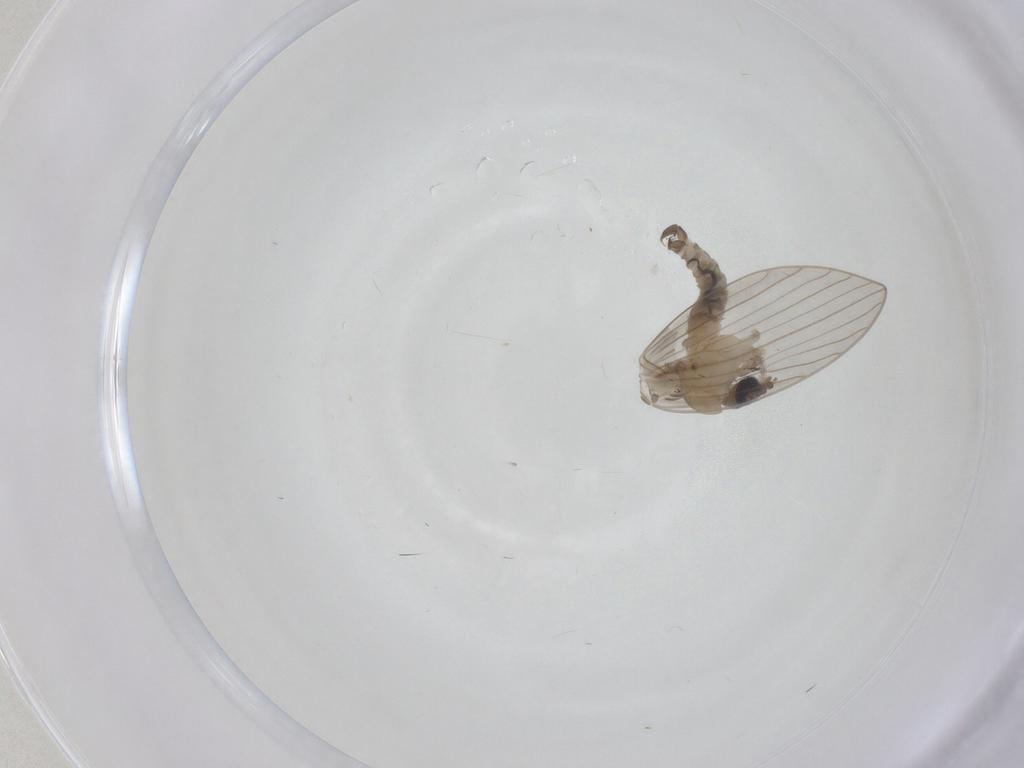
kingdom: Animalia
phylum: Arthropoda
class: Insecta
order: Diptera
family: Psychodidae
